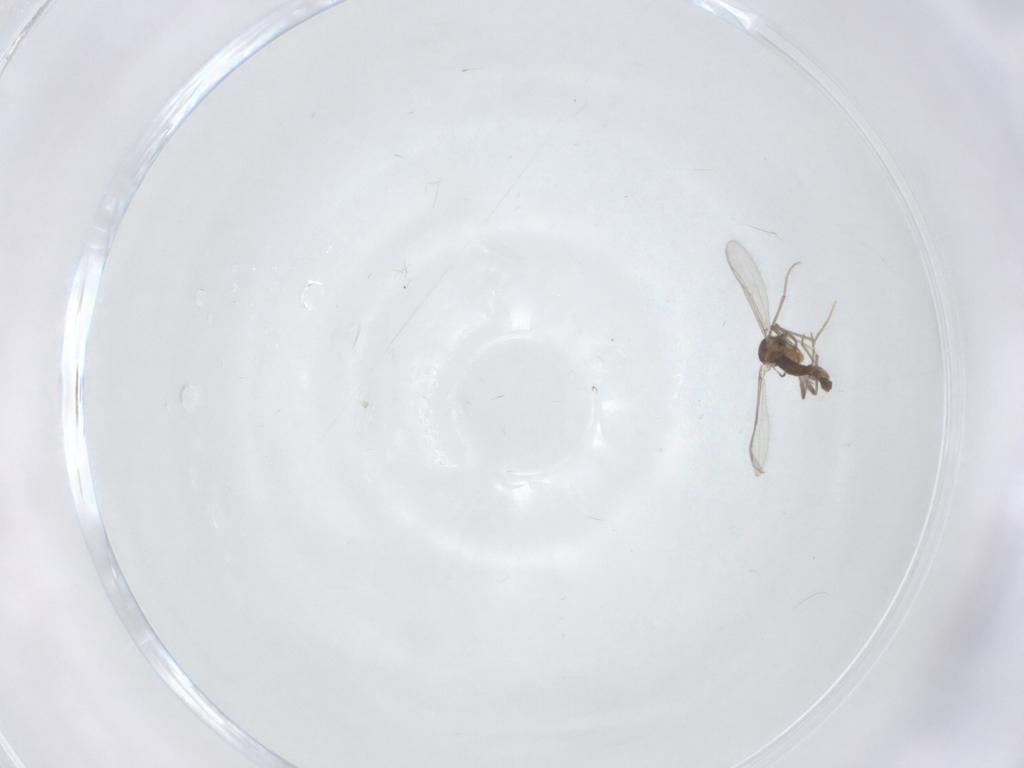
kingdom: Animalia
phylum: Arthropoda
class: Insecta
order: Diptera
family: Ceratopogonidae
